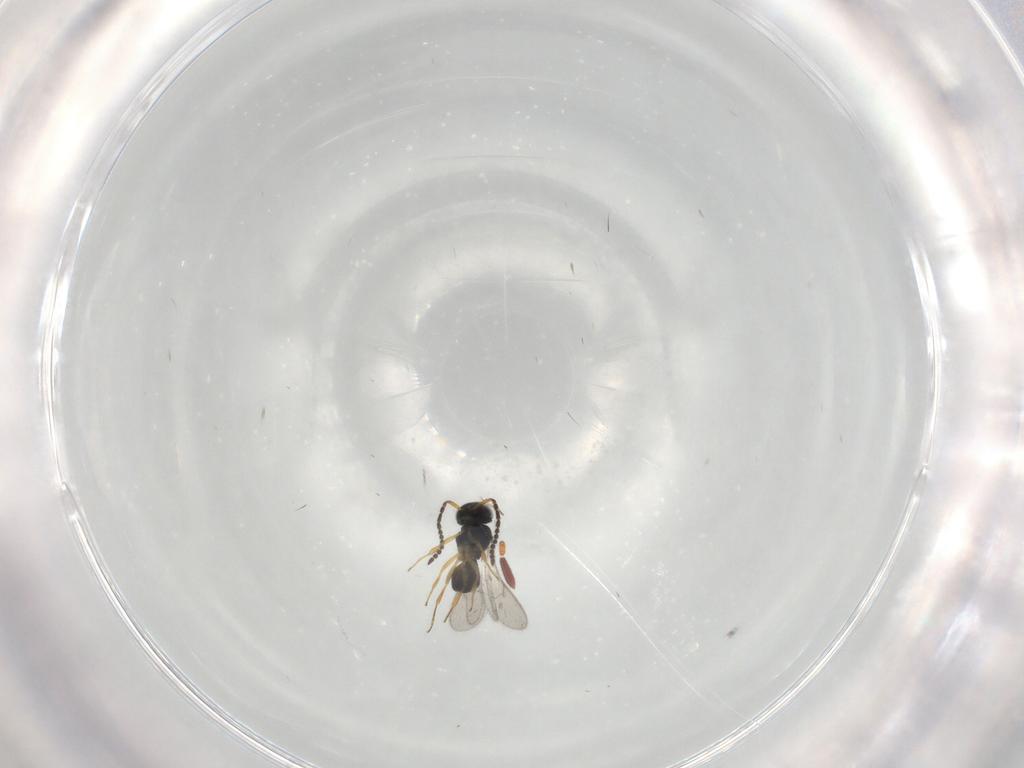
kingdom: Animalia
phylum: Arthropoda
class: Insecta
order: Hymenoptera
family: Scelionidae
